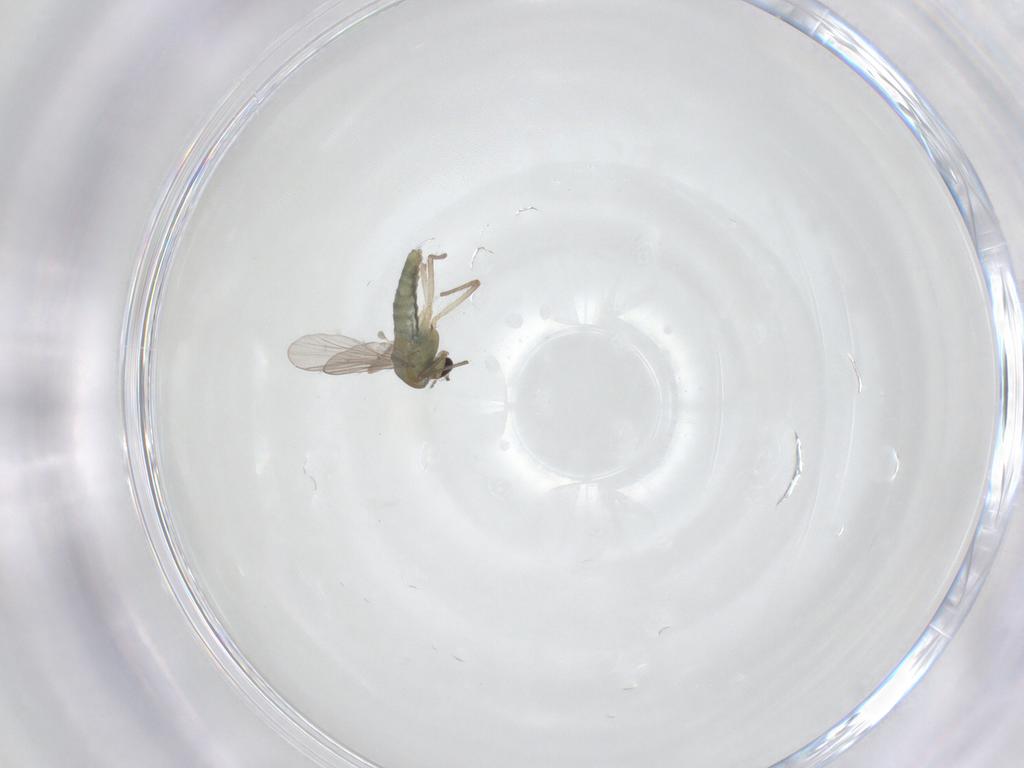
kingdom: Animalia
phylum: Arthropoda
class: Insecta
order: Diptera
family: Chironomidae
